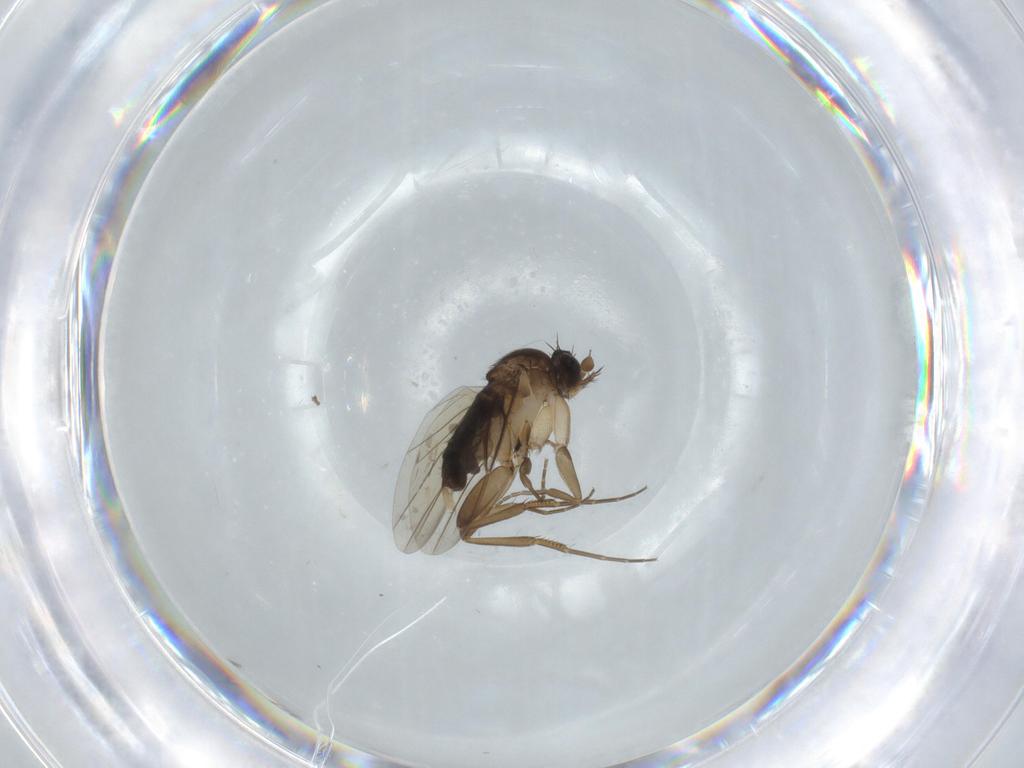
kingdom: Animalia
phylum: Arthropoda
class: Insecta
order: Diptera
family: Phoridae
